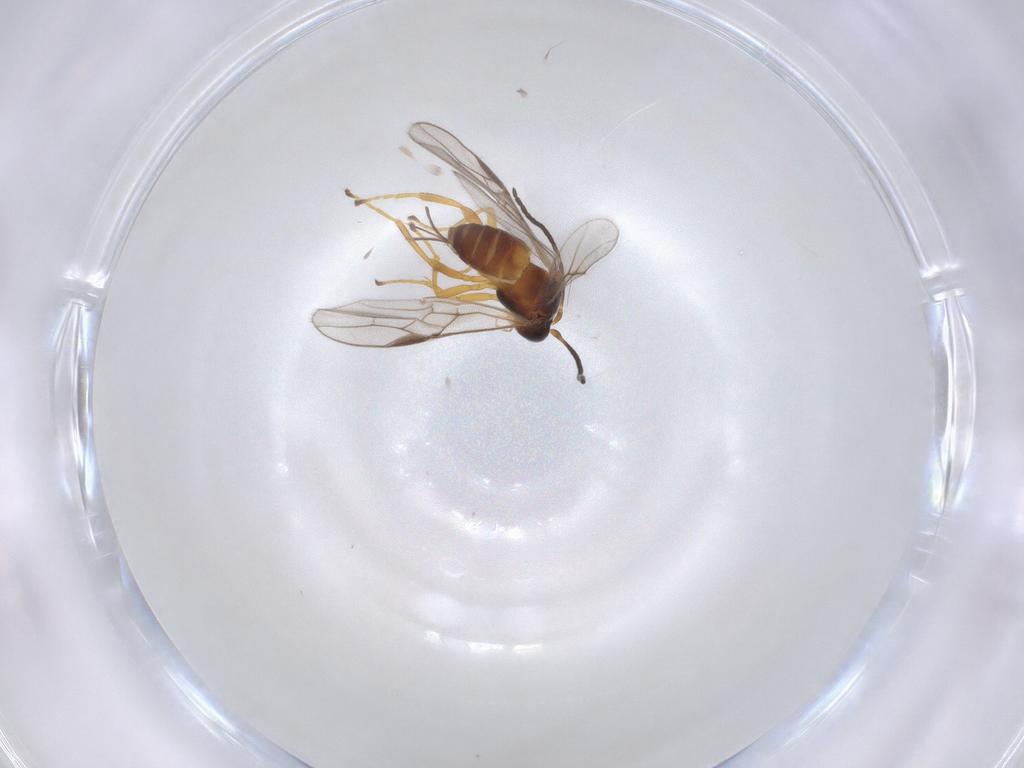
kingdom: Animalia
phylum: Arthropoda
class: Insecta
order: Hymenoptera
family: Braconidae
